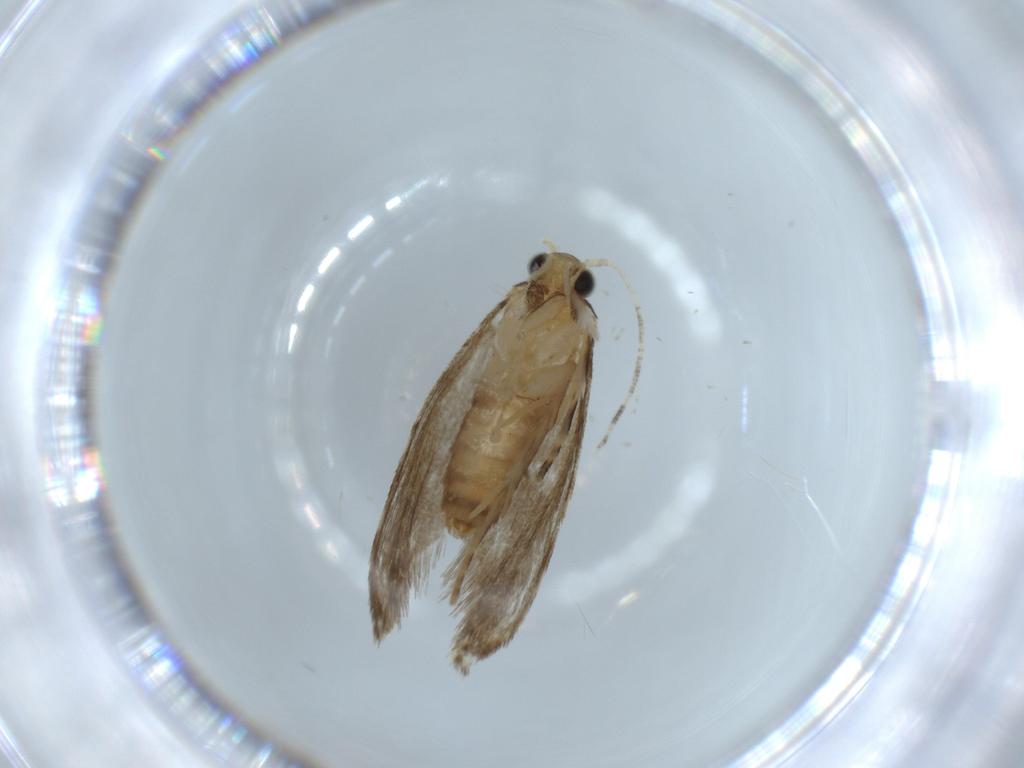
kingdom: Animalia
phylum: Arthropoda
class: Insecta
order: Lepidoptera
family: Tineidae
